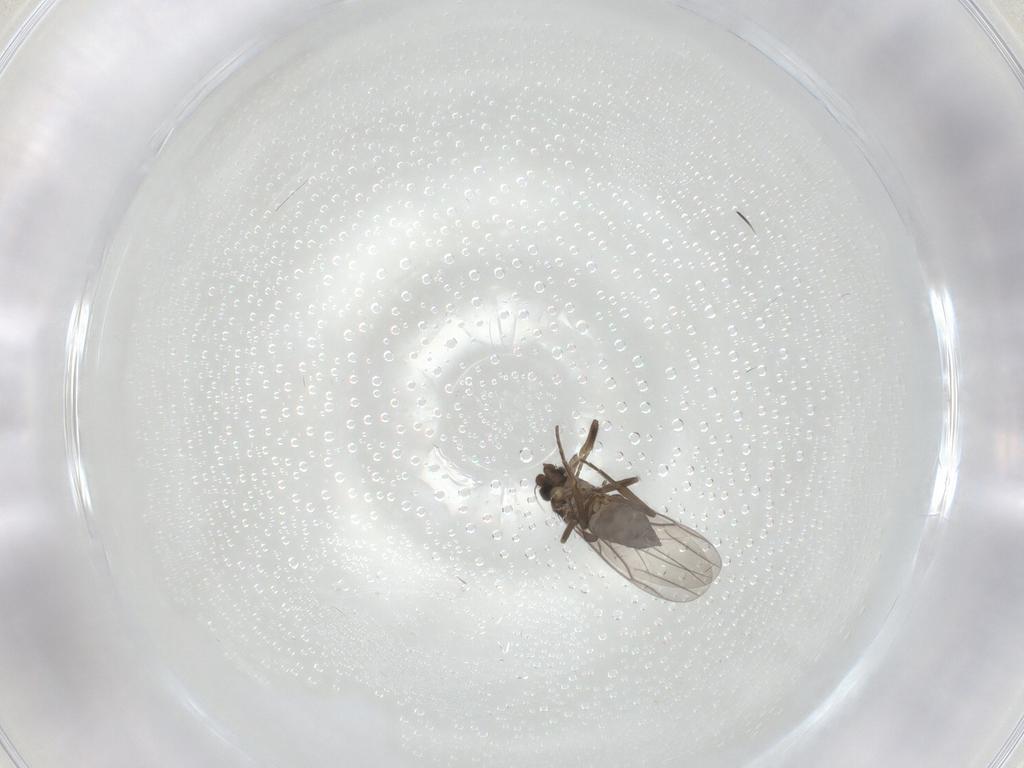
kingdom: Animalia
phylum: Arthropoda
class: Insecta
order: Diptera
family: Phoridae
